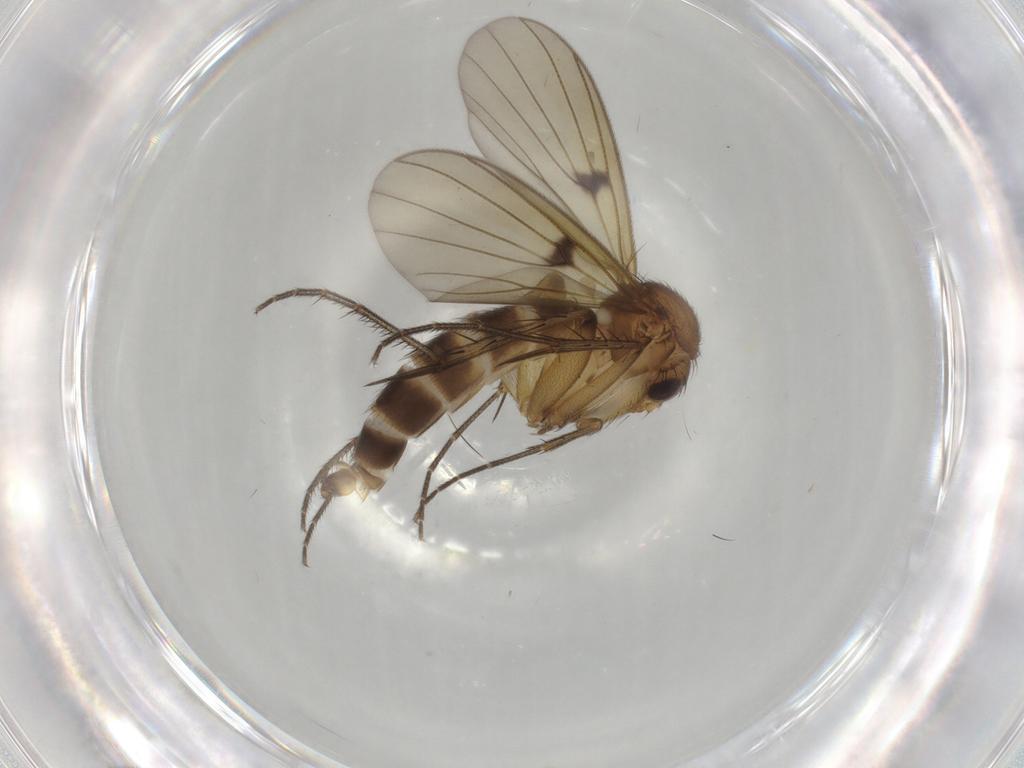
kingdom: Animalia
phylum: Arthropoda
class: Insecta
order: Diptera
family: Mycetophilidae
